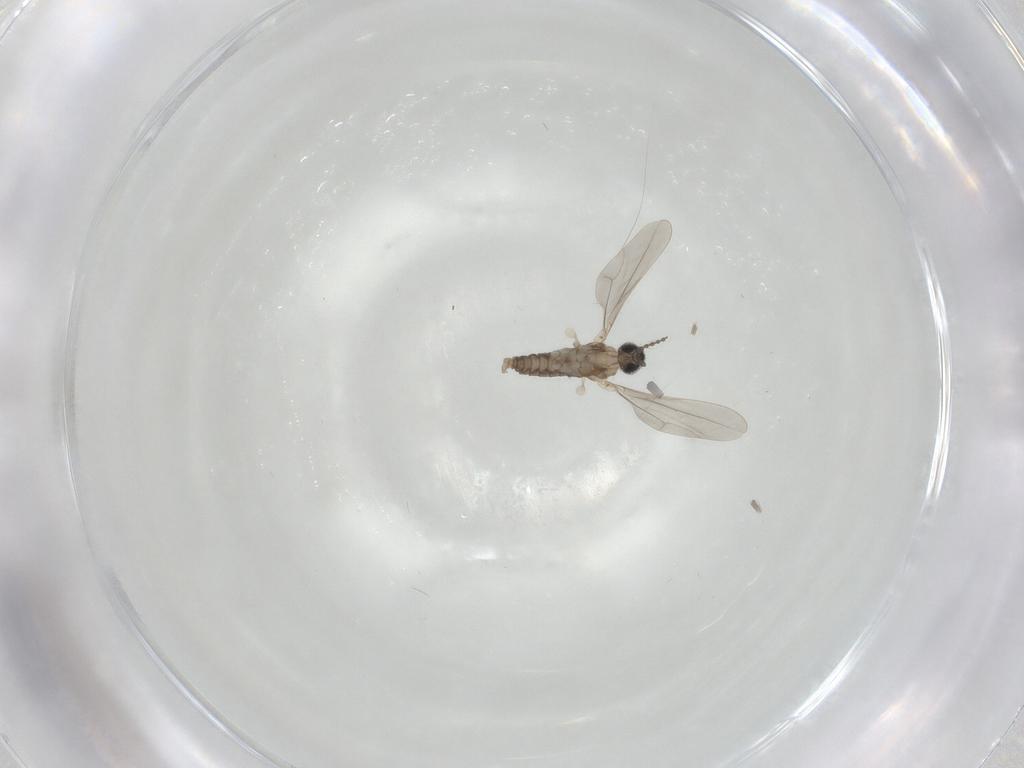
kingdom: Animalia
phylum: Arthropoda
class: Insecta
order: Diptera
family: Cecidomyiidae
